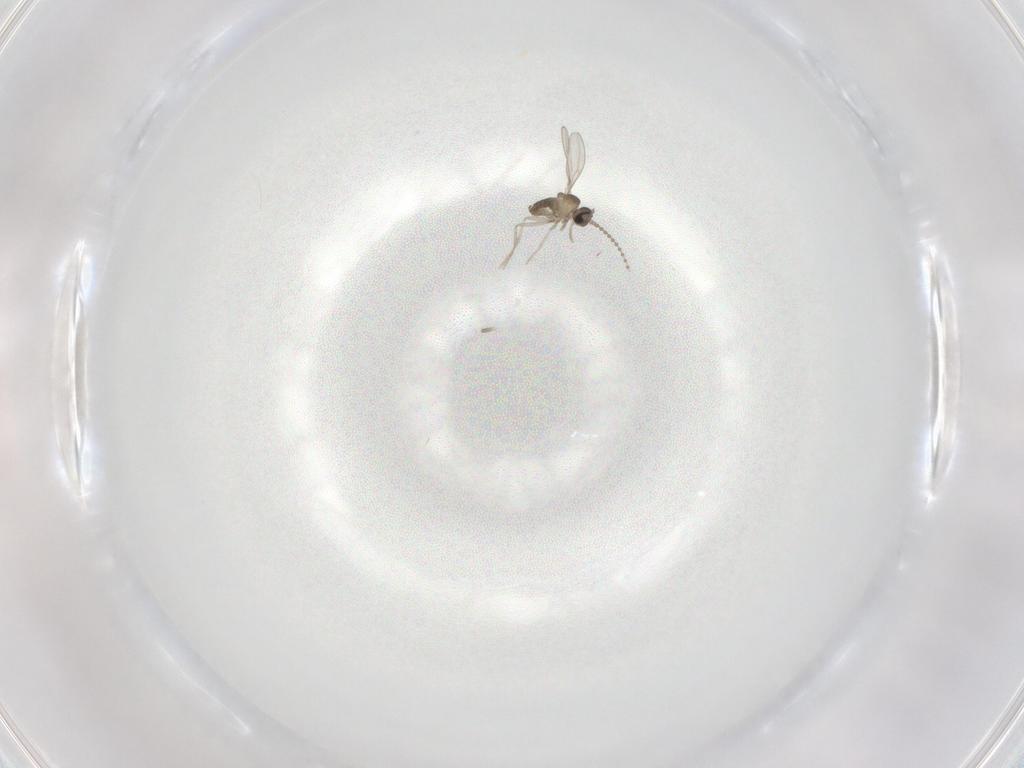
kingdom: Animalia
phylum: Arthropoda
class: Insecta
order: Diptera
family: Cecidomyiidae
